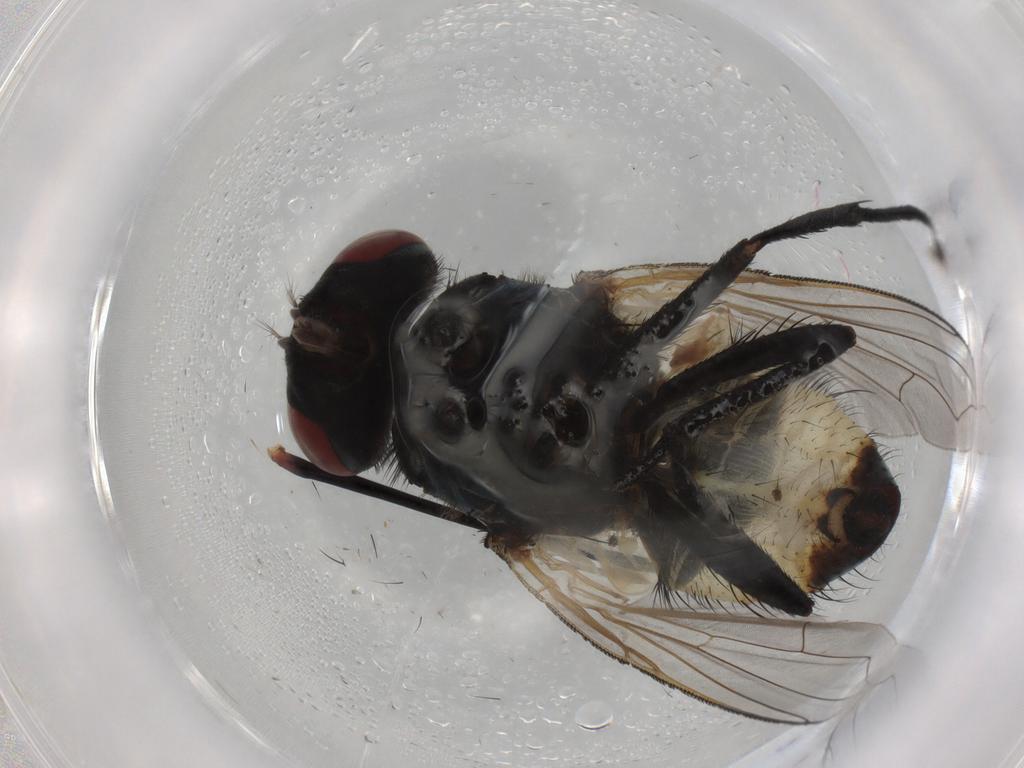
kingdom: Animalia
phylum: Arthropoda
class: Insecta
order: Diptera
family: Muscidae
